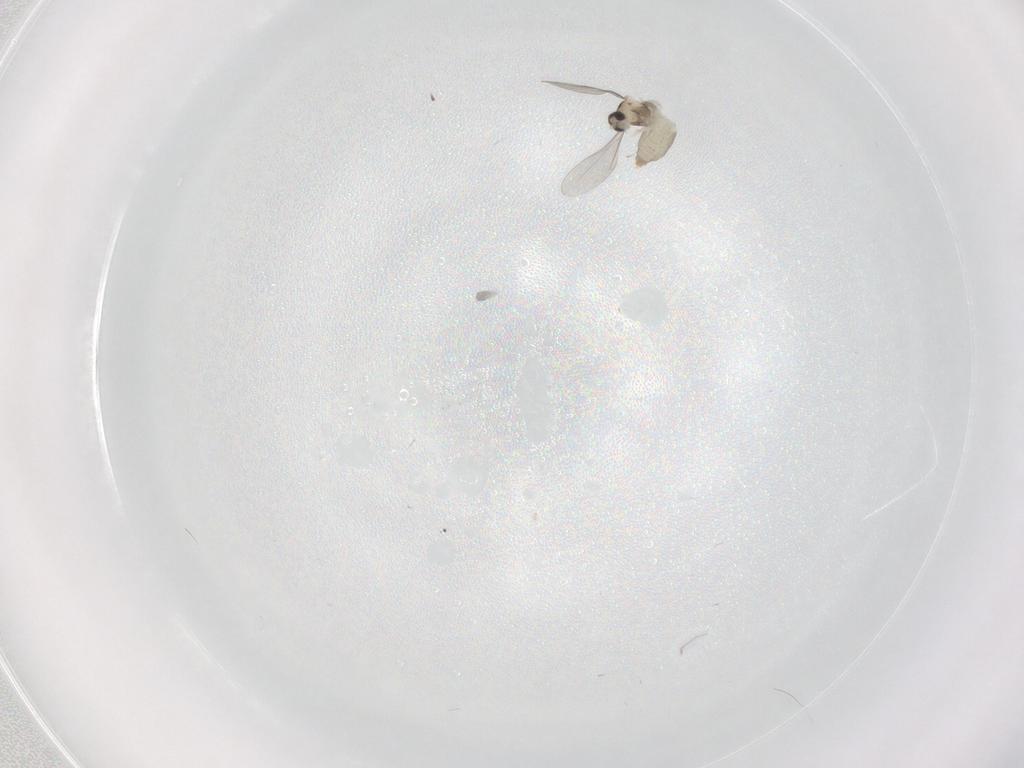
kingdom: Animalia
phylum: Arthropoda
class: Insecta
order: Diptera
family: Cecidomyiidae
